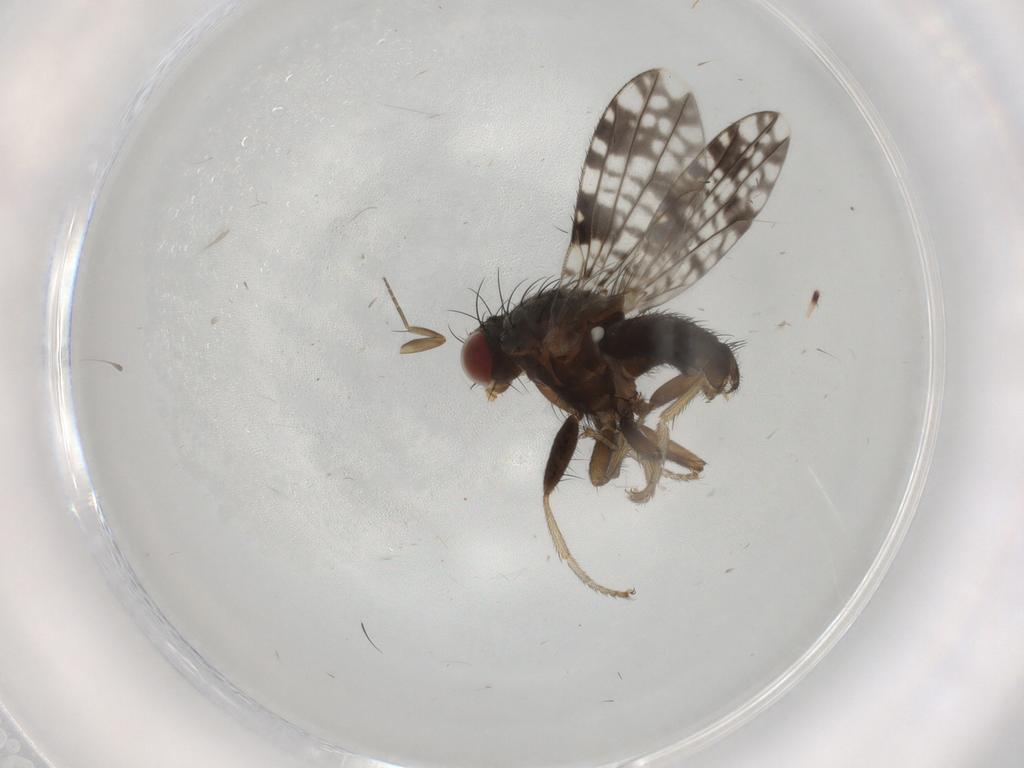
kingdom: Animalia
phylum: Arthropoda
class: Insecta
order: Diptera
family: Tephritidae
